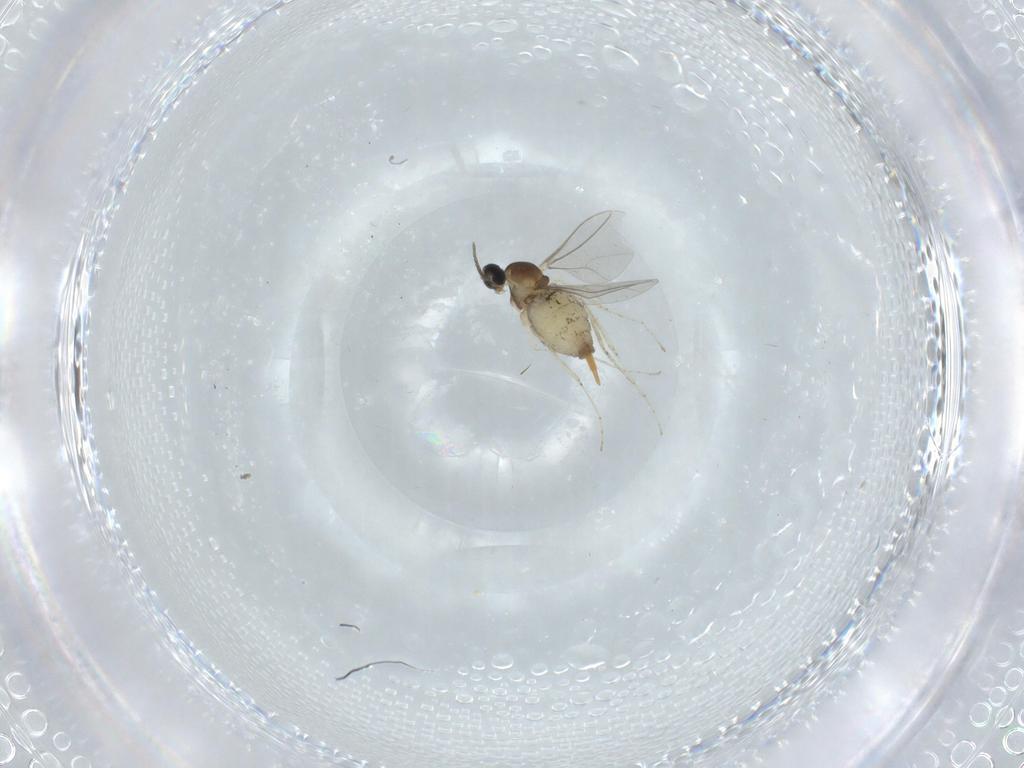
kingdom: Animalia
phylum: Arthropoda
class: Insecta
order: Diptera
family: Cecidomyiidae
